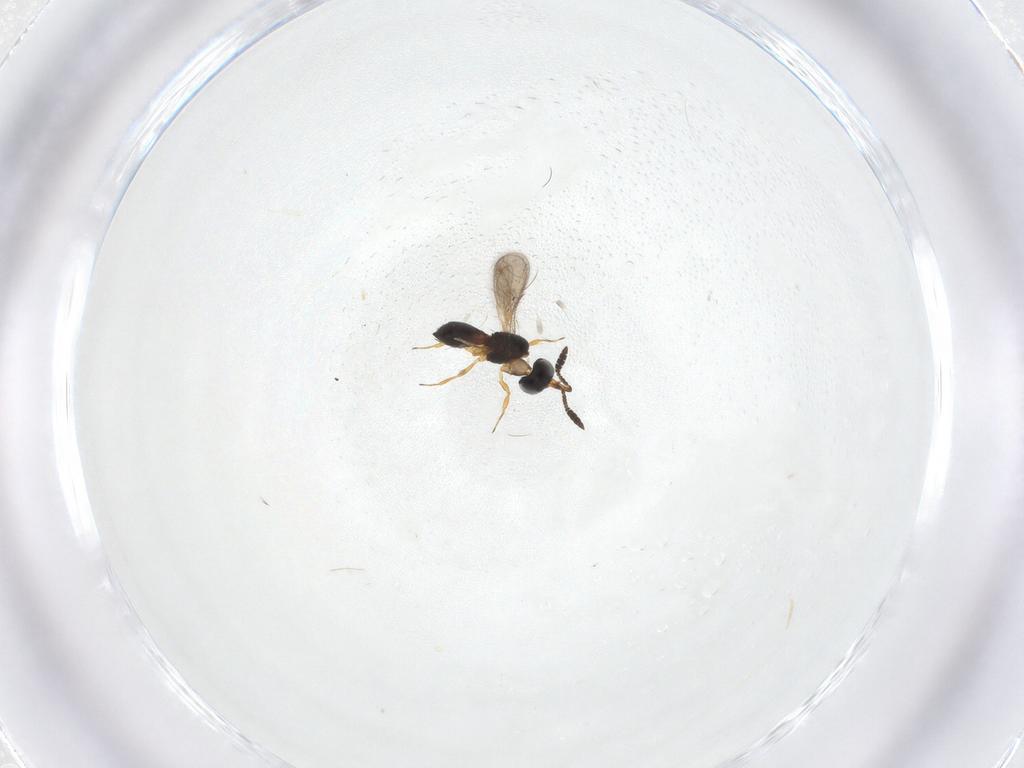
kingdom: Animalia
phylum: Arthropoda
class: Insecta
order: Hymenoptera
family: Scelionidae
